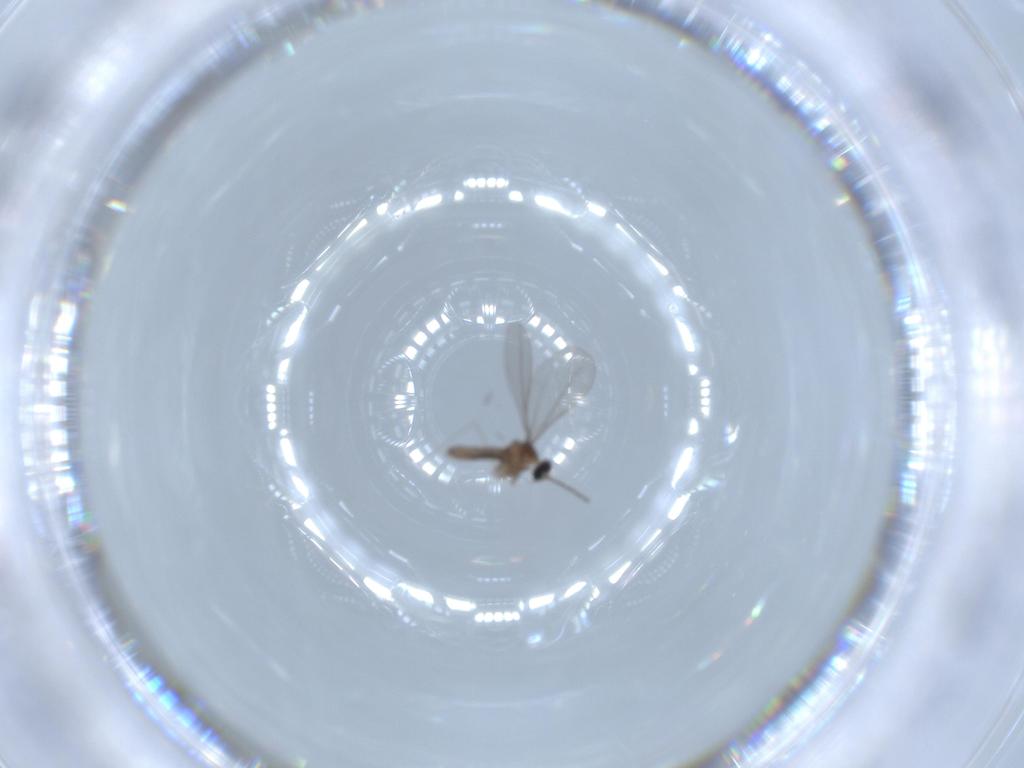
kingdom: Animalia
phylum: Arthropoda
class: Insecta
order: Diptera
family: Cecidomyiidae
